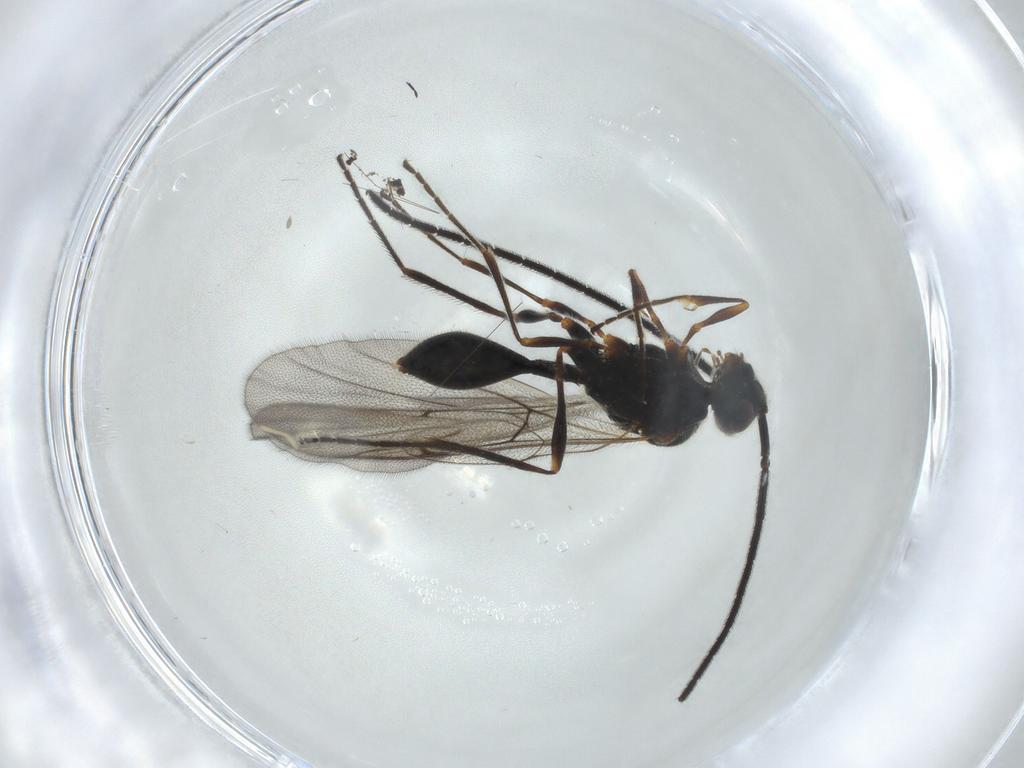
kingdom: Animalia
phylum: Arthropoda
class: Insecta
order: Hymenoptera
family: Diapriidae
